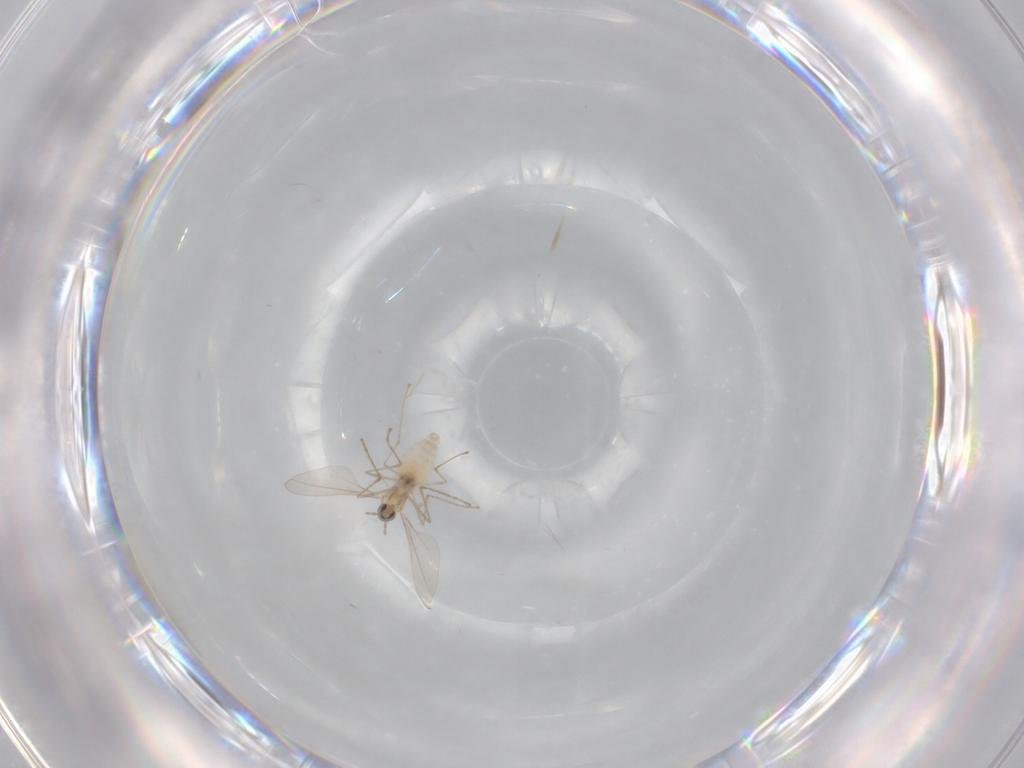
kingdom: Animalia
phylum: Arthropoda
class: Insecta
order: Diptera
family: Cecidomyiidae
